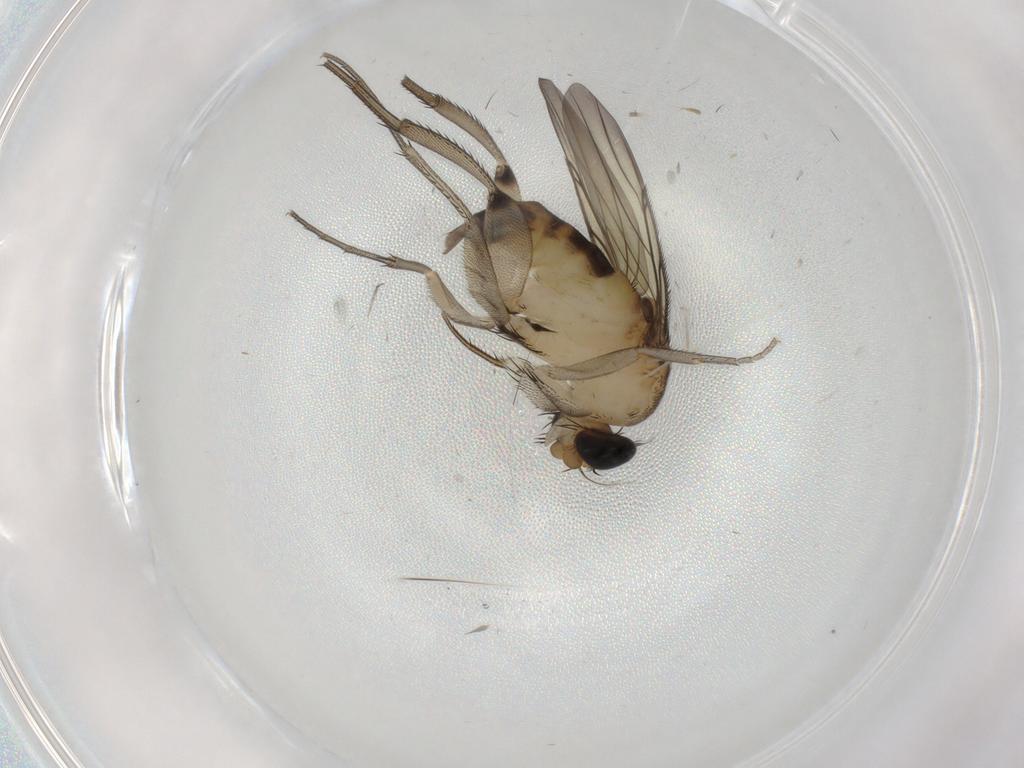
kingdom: Animalia
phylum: Arthropoda
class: Insecta
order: Diptera
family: Phoridae
